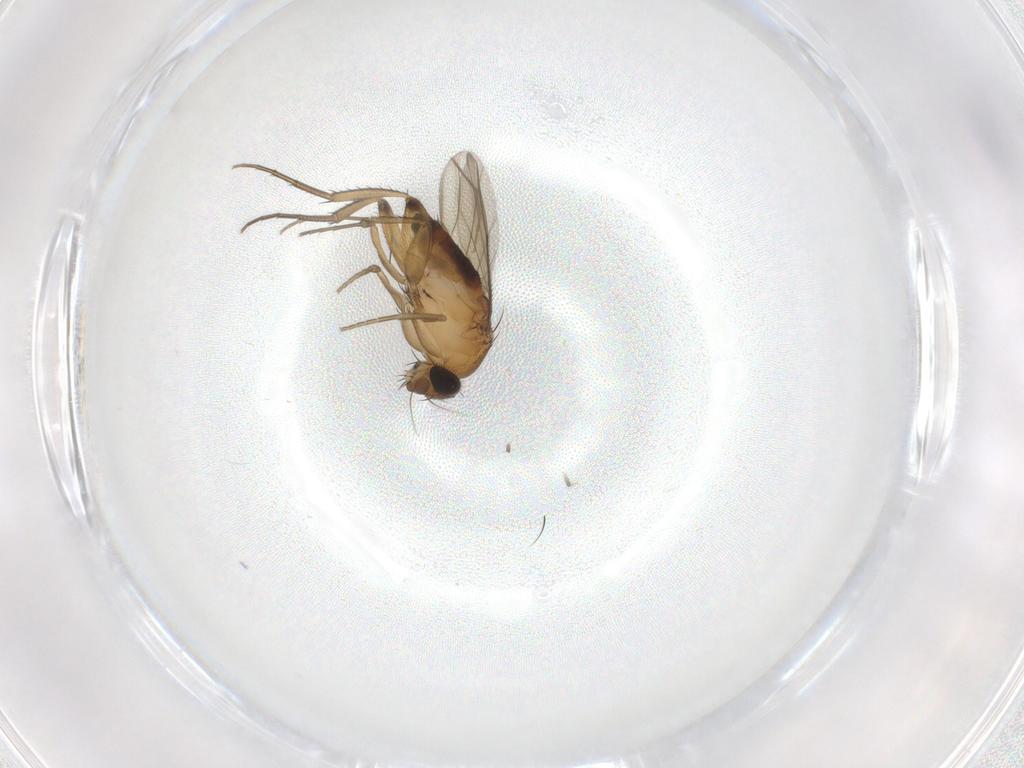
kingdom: Animalia
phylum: Arthropoda
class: Insecta
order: Diptera
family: Phoridae
